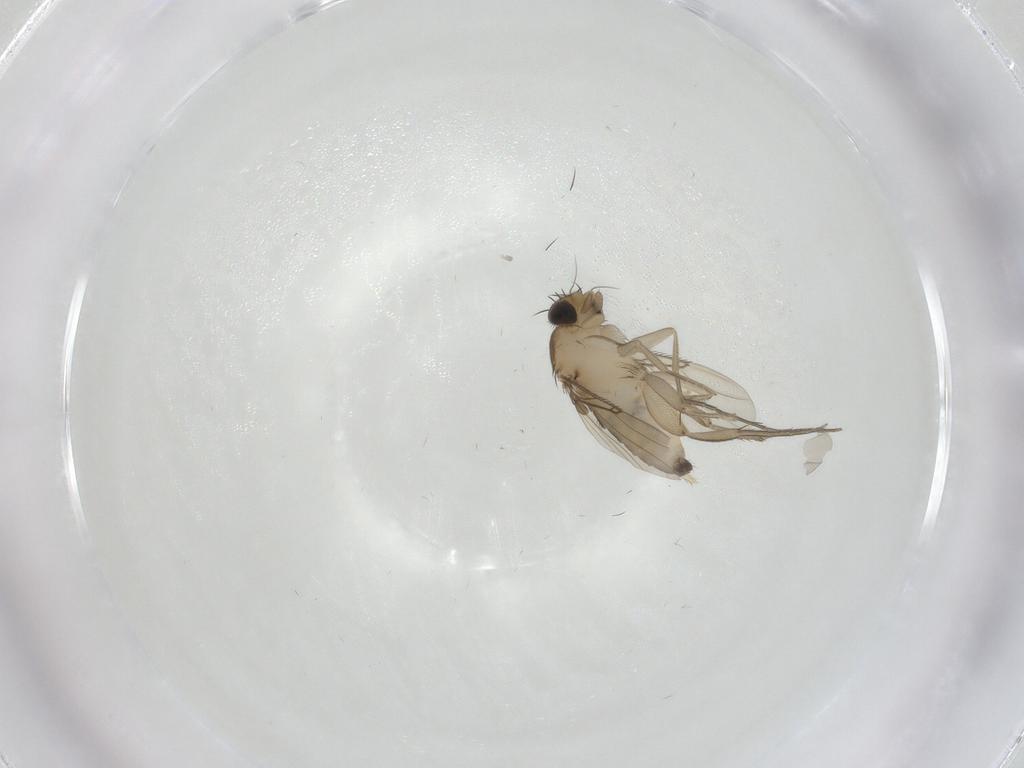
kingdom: Animalia
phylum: Arthropoda
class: Insecta
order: Diptera
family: Phoridae
